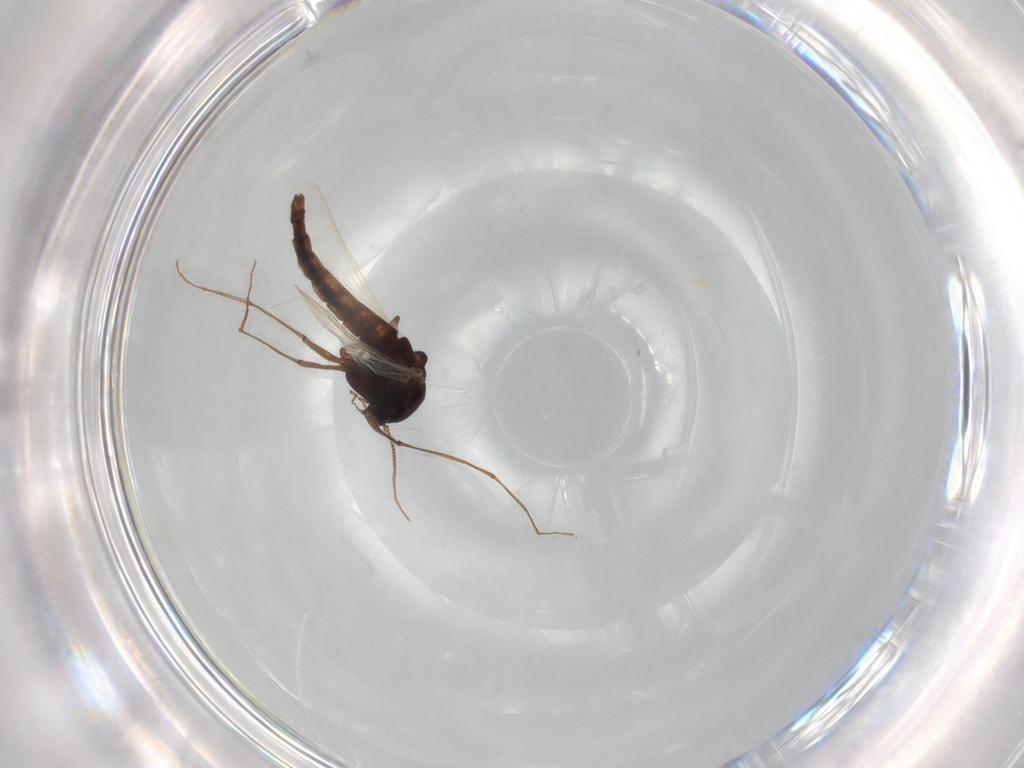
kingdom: Animalia
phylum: Arthropoda
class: Insecta
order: Diptera
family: Chironomidae
